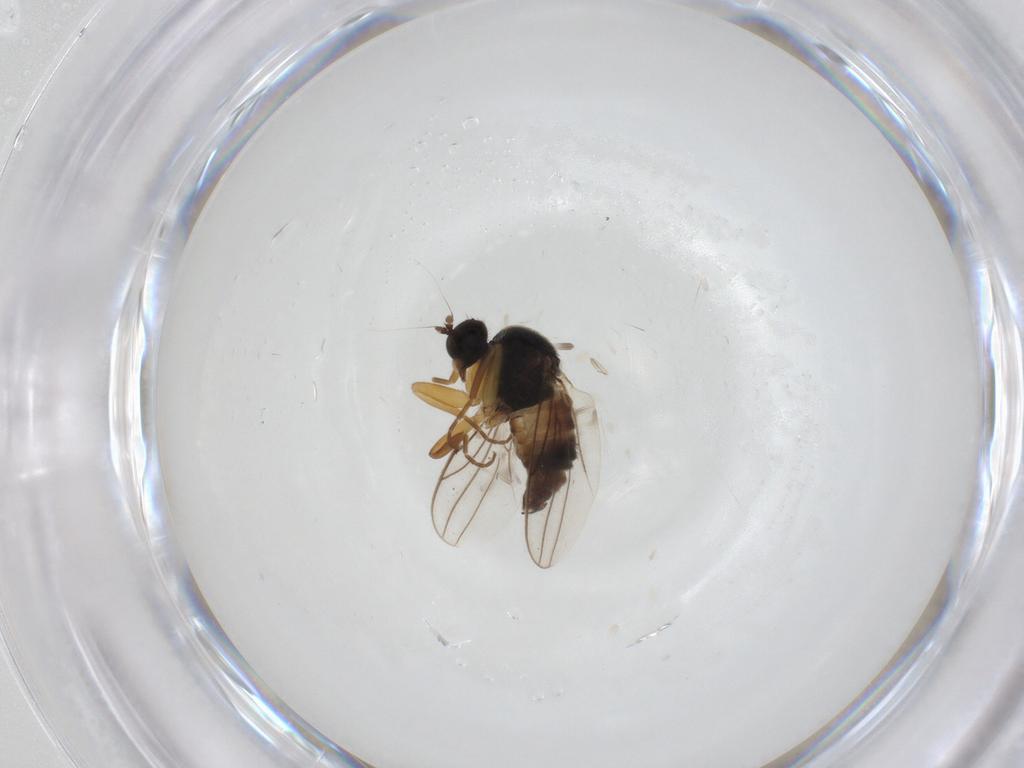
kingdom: Animalia
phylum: Arthropoda
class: Insecta
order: Diptera
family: Hybotidae
